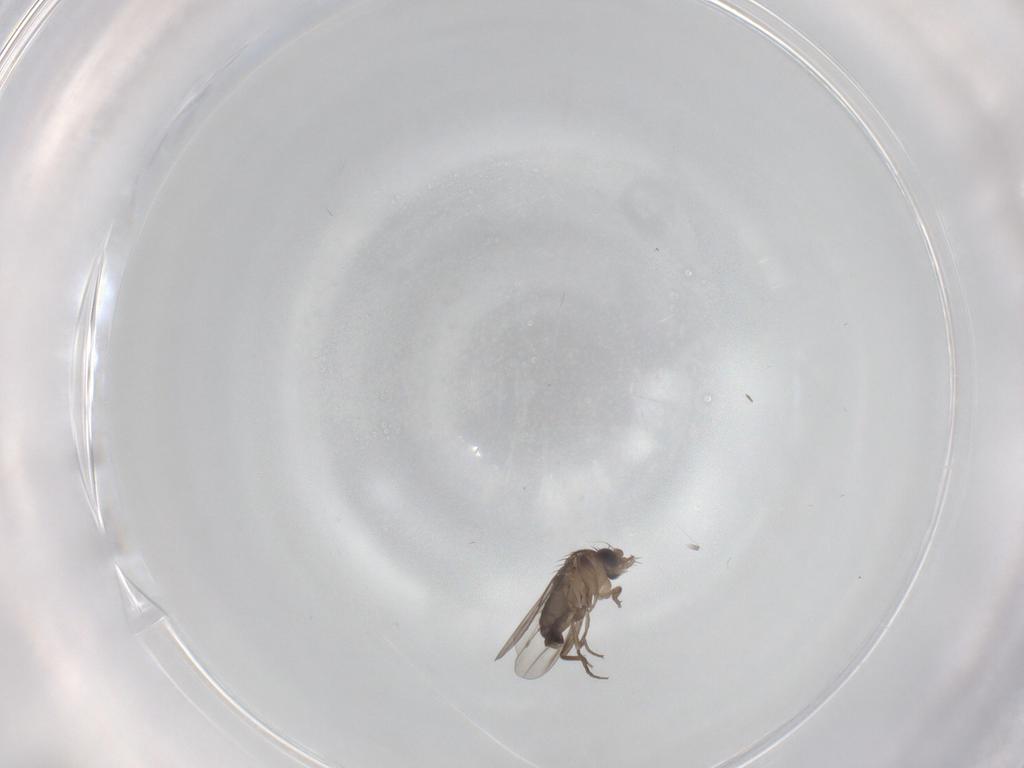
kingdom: Animalia
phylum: Arthropoda
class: Insecta
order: Diptera
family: Phoridae
